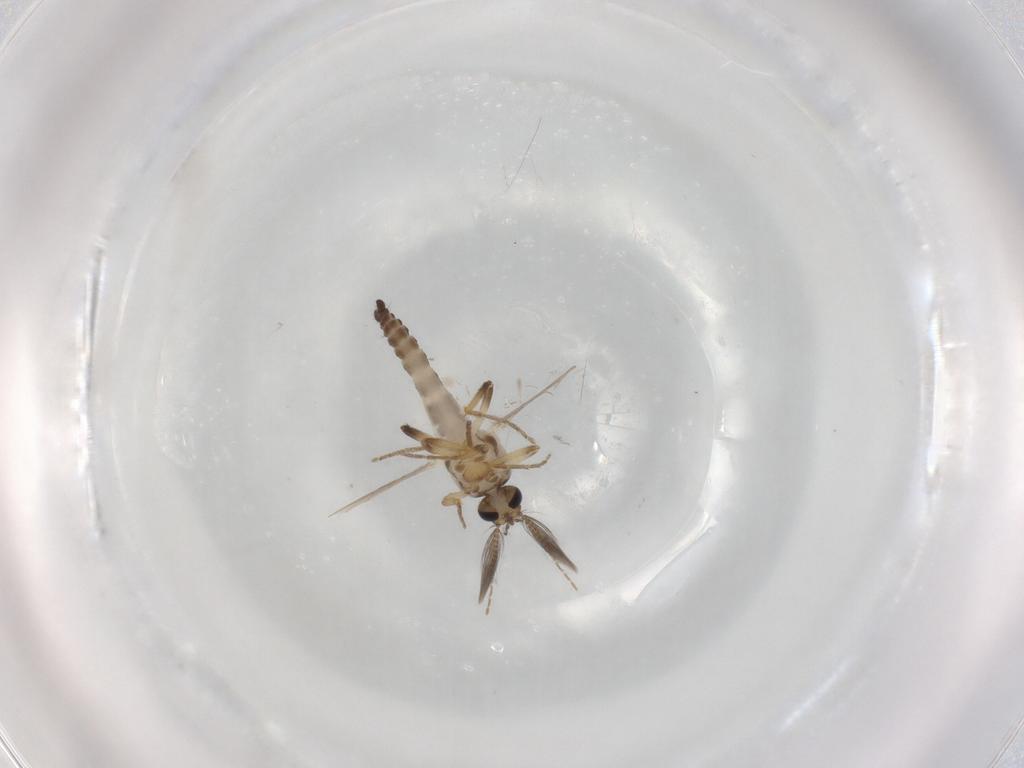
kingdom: Animalia
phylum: Arthropoda
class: Insecta
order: Diptera
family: Ceratopogonidae
